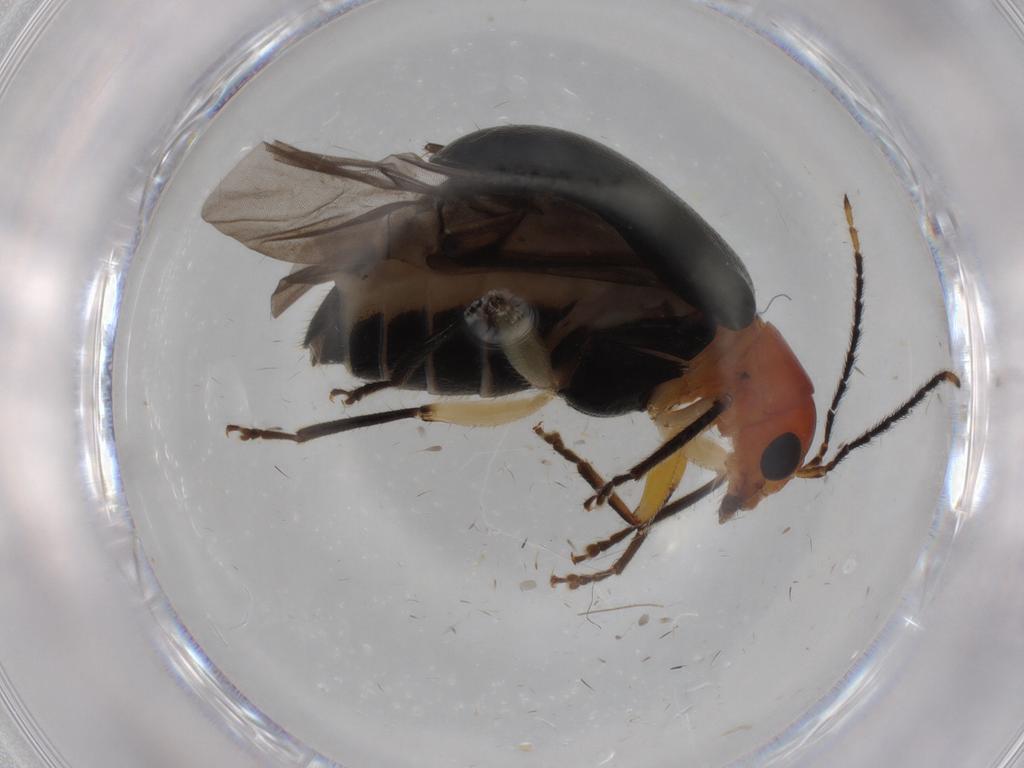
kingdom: Animalia
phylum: Arthropoda
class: Insecta
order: Coleoptera
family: Chrysomelidae
